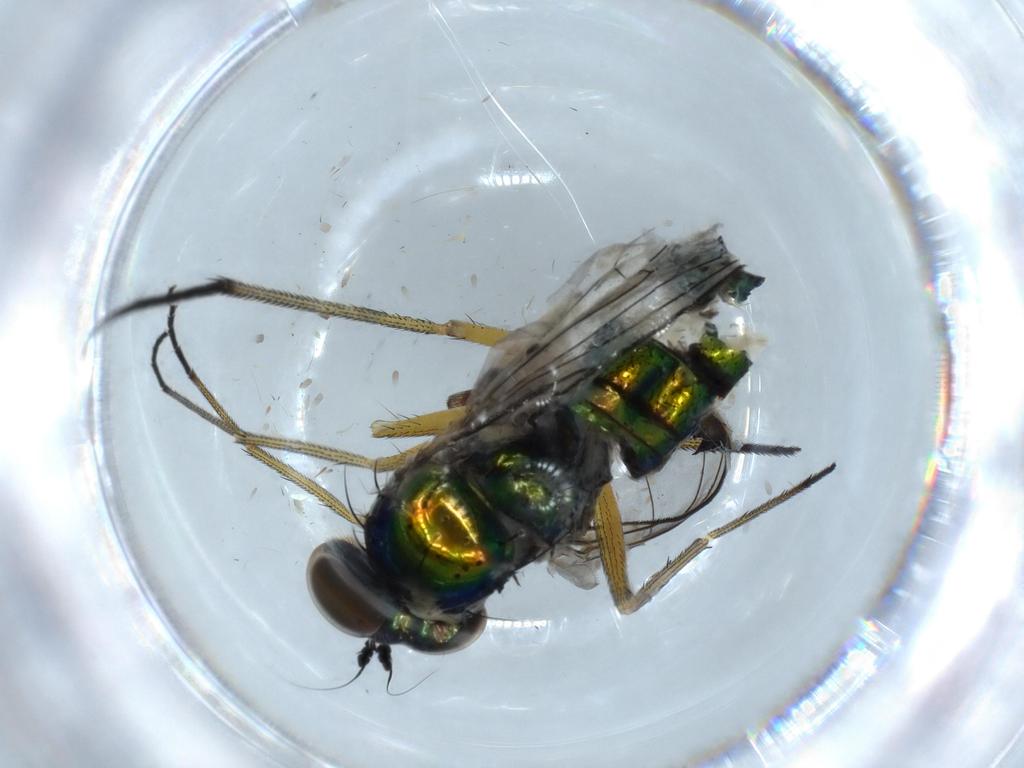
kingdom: Animalia
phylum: Arthropoda
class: Insecta
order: Diptera
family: Dolichopodidae
